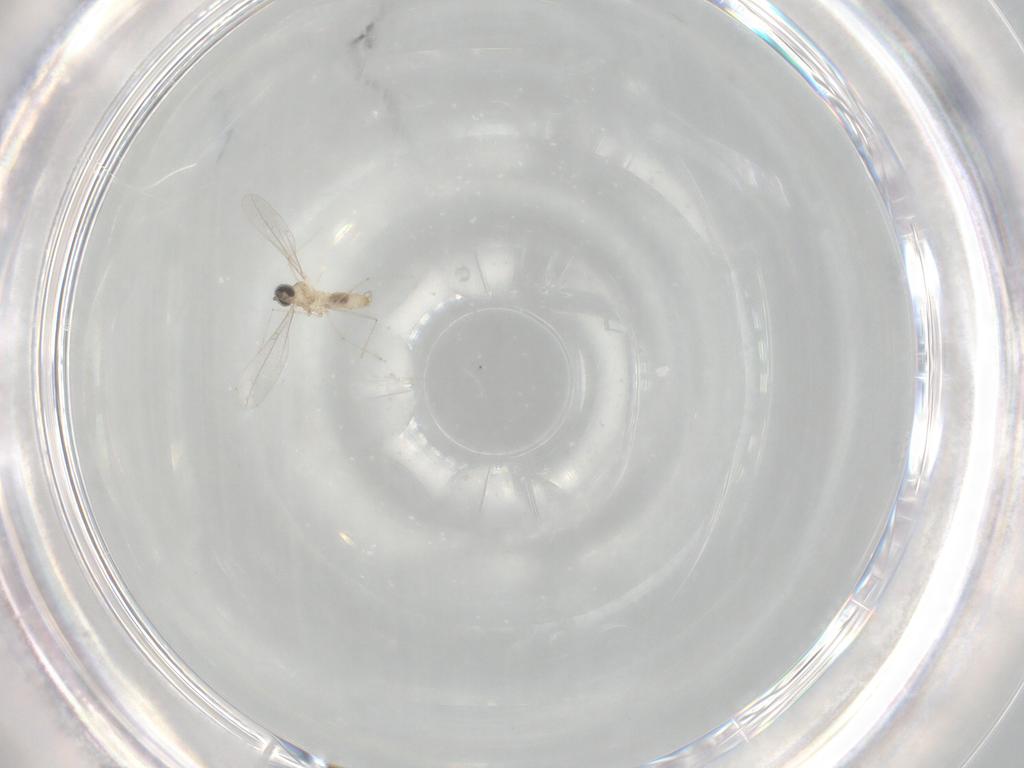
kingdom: Animalia
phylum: Arthropoda
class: Insecta
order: Diptera
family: Cecidomyiidae
